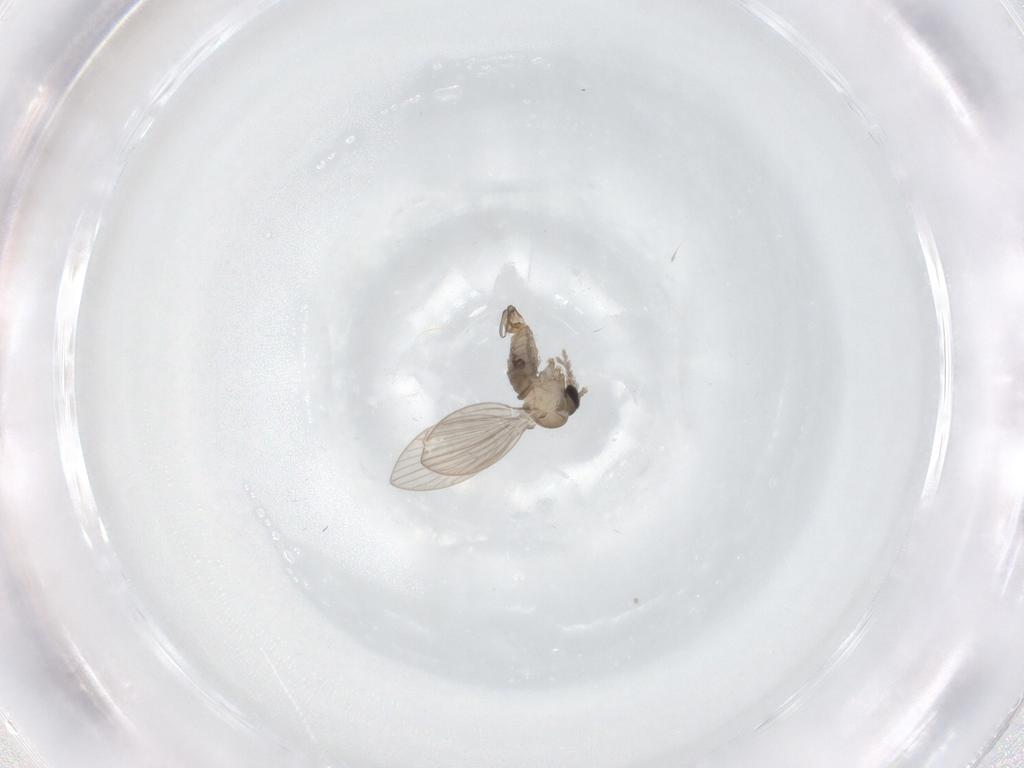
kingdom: Animalia
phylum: Arthropoda
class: Insecta
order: Diptera
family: Psychodidae
